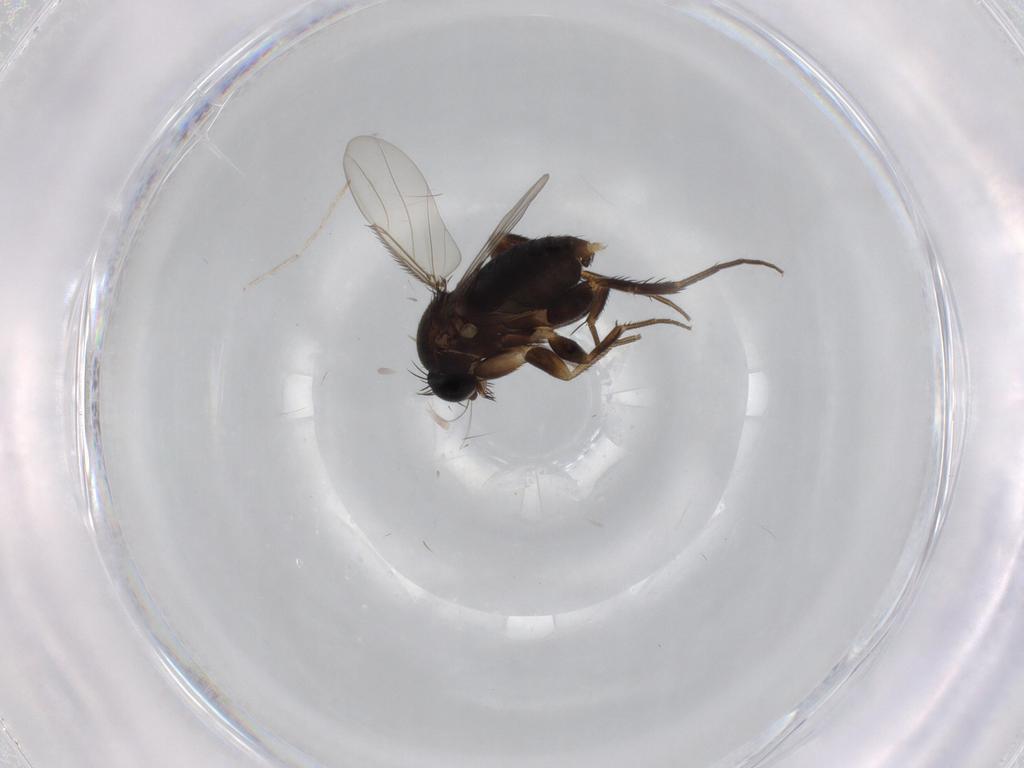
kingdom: Animalia
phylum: Arthropoda
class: Insecta
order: Diptera
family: Phoridae
